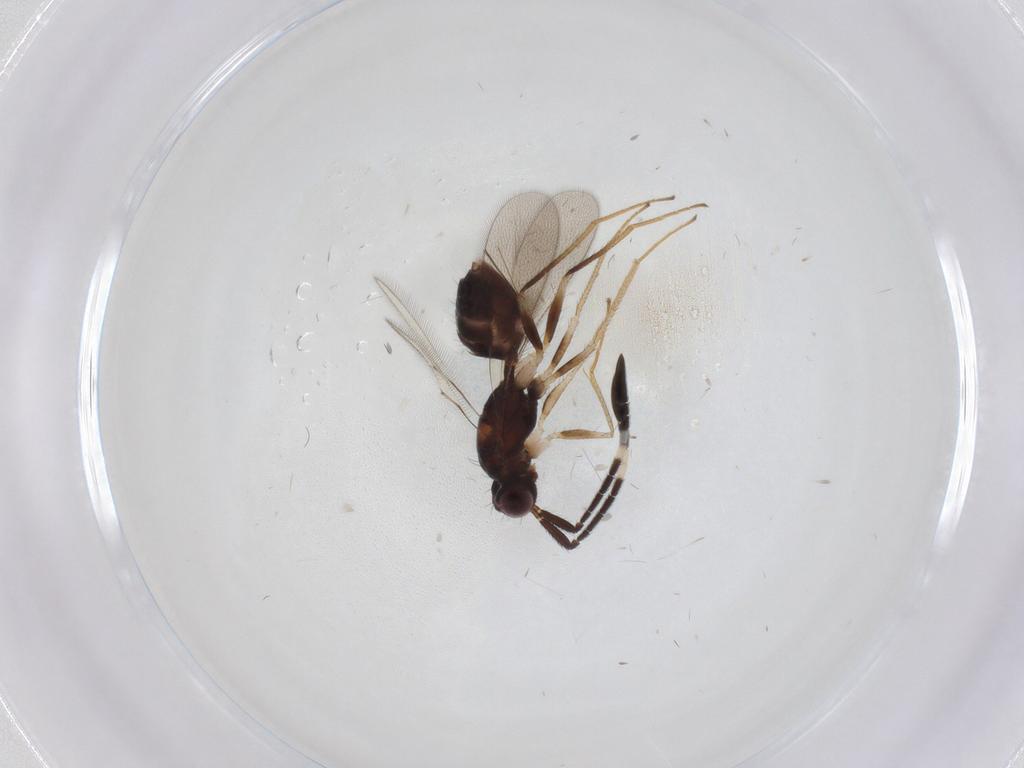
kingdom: Animalia
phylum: Arthropoda
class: Insecta
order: Hymenoptera
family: Mymaridae
